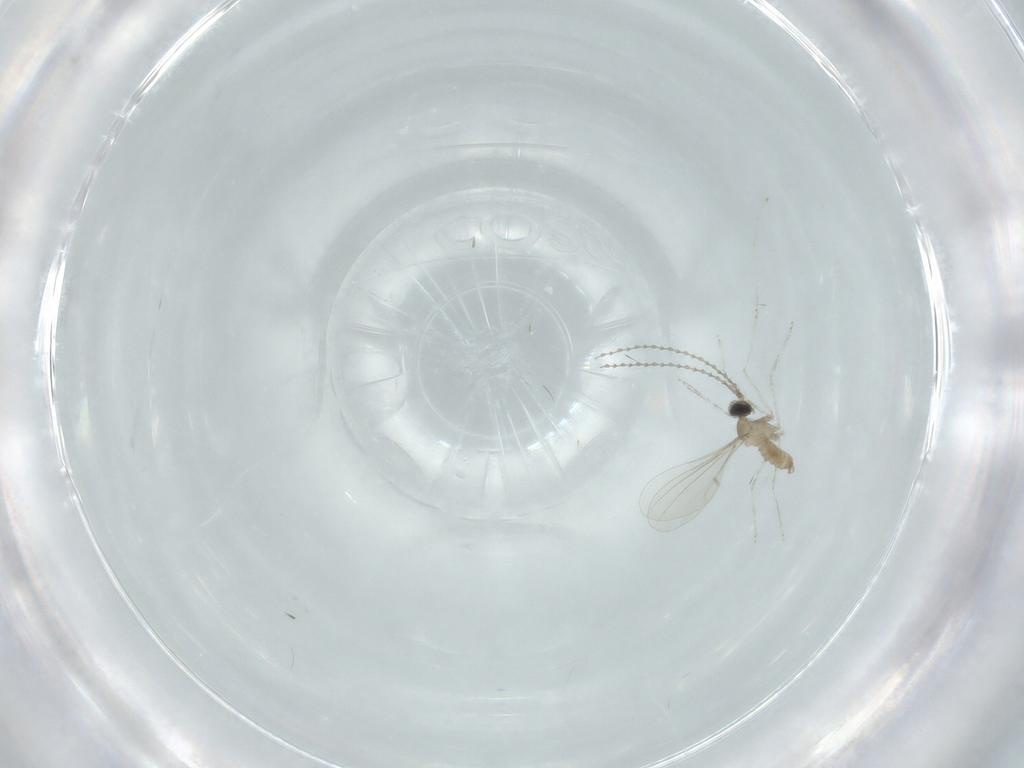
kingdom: Animalia
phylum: Arthropoda
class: Insecta
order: Diptera
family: Cecidomyiidae
